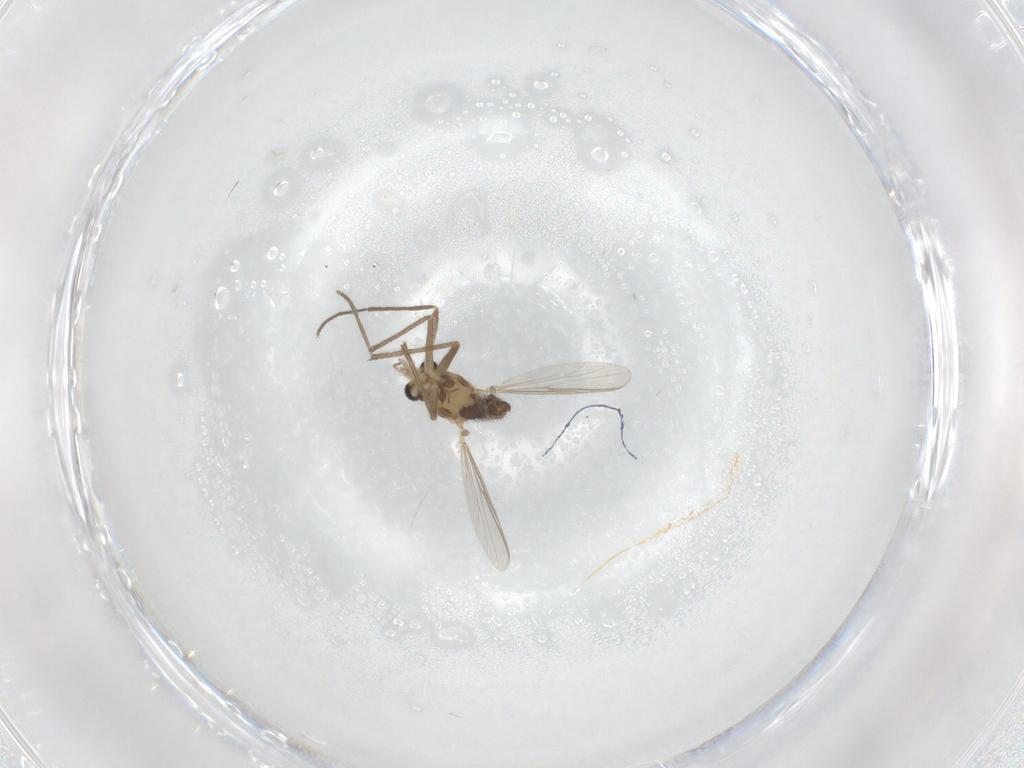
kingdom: Animalia
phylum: Arthropoda
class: Insecta
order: Diptera
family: Chironomidae
